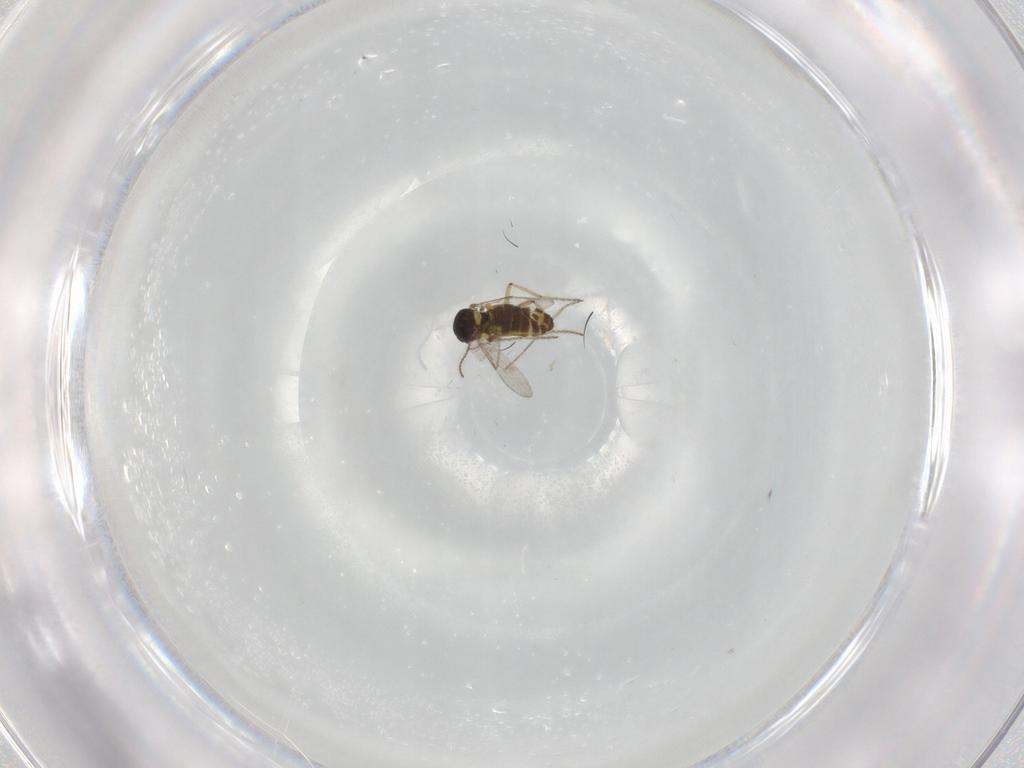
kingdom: Animalia
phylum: Arthropoda
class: Insecta
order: Diptera
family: Ceratopogonidae
